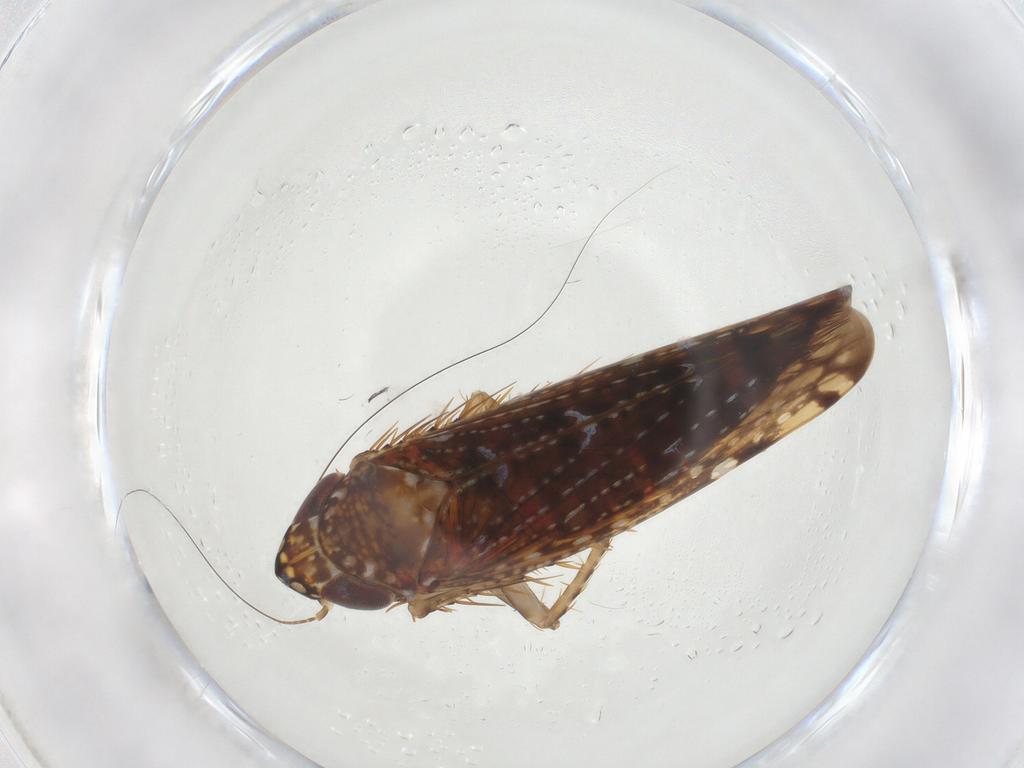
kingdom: Animalia
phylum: Arthropoda
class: Insecta
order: Hemiptera
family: Cicadellidae
